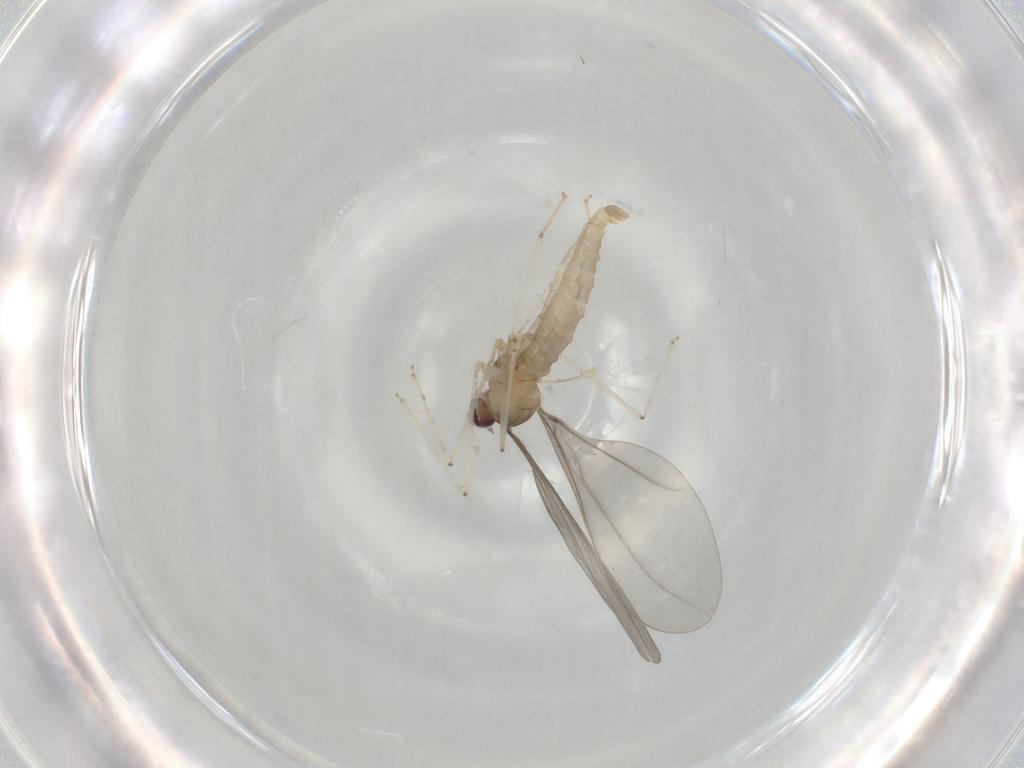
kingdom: Animalia
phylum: Arthropoda
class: Insecta
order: Diptera
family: Cecidomyiidae
